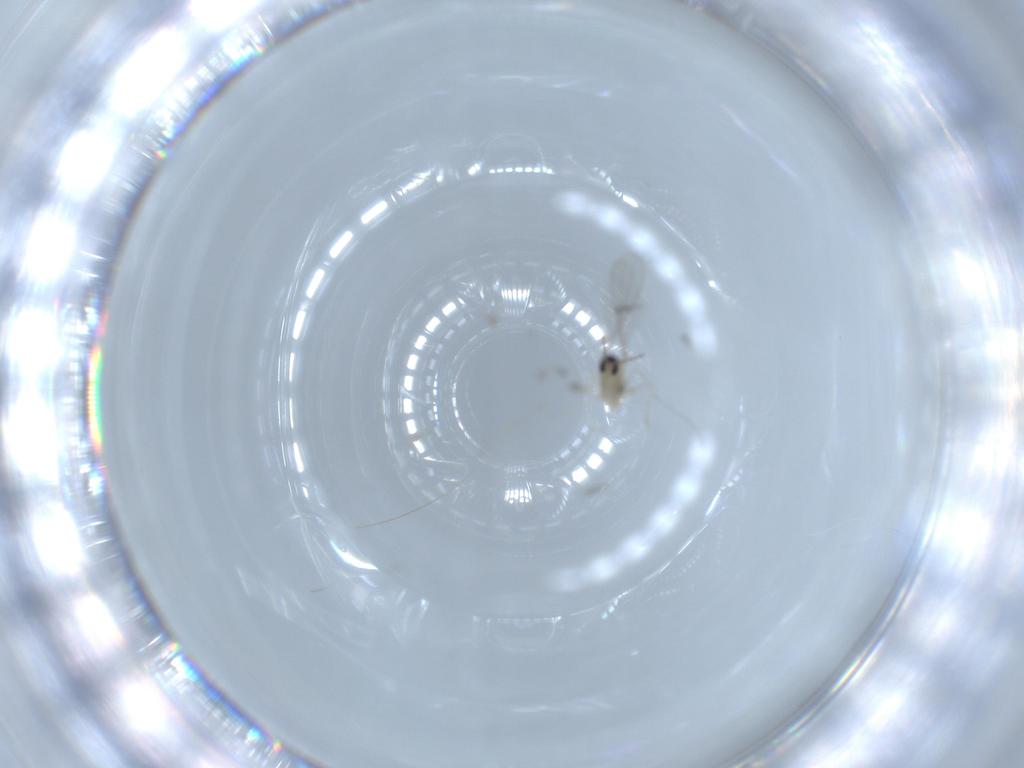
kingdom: Animalia
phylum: Arthropoda
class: Insecta
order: Diptera
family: Cecidomyiidae
